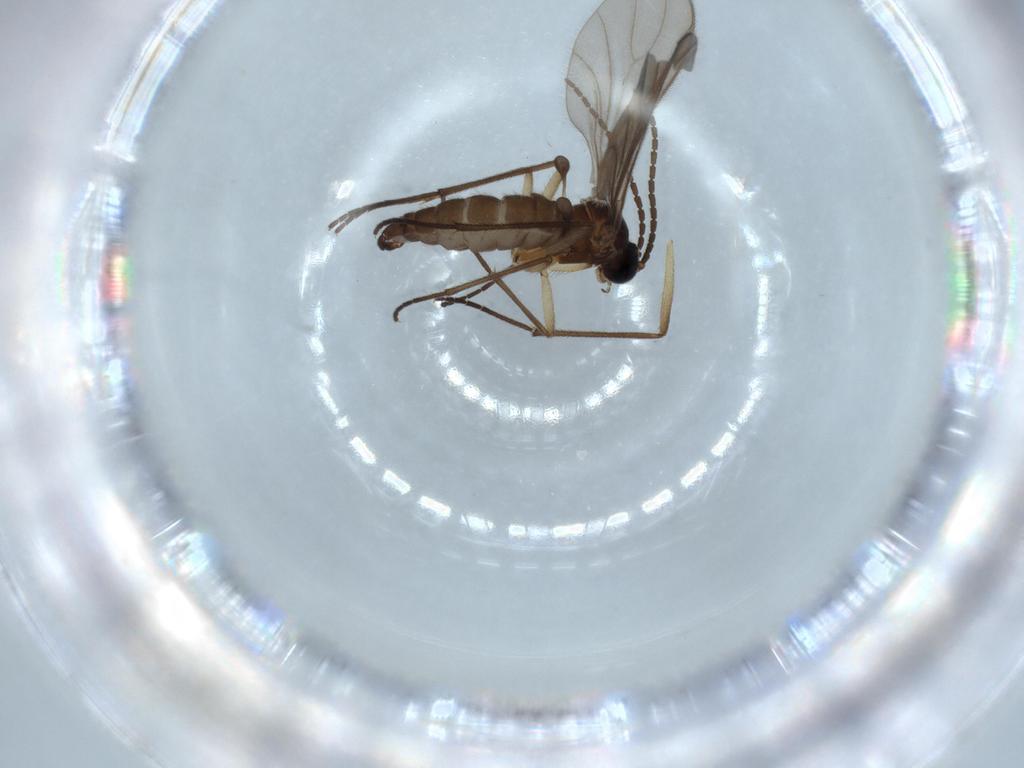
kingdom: Animalia
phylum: Arthropoda
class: Insecta
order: Diptera
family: Sciaridae
